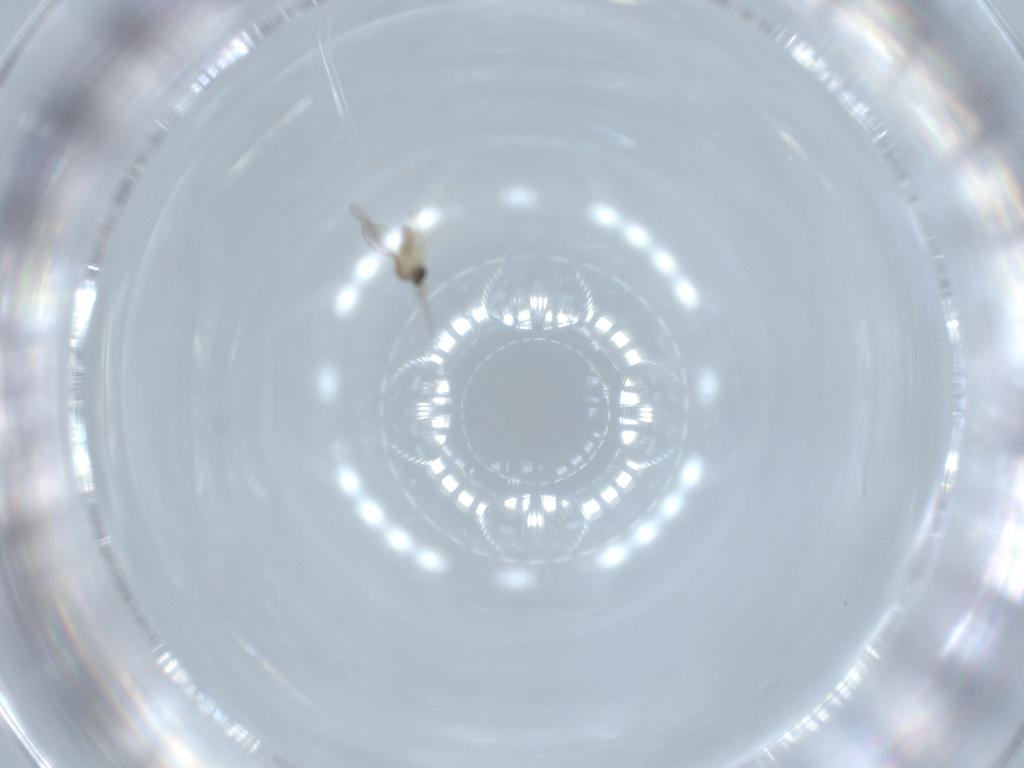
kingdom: Animalia
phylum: Arthropoda
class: Insecta
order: Diptera
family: Cecidomyiidae
